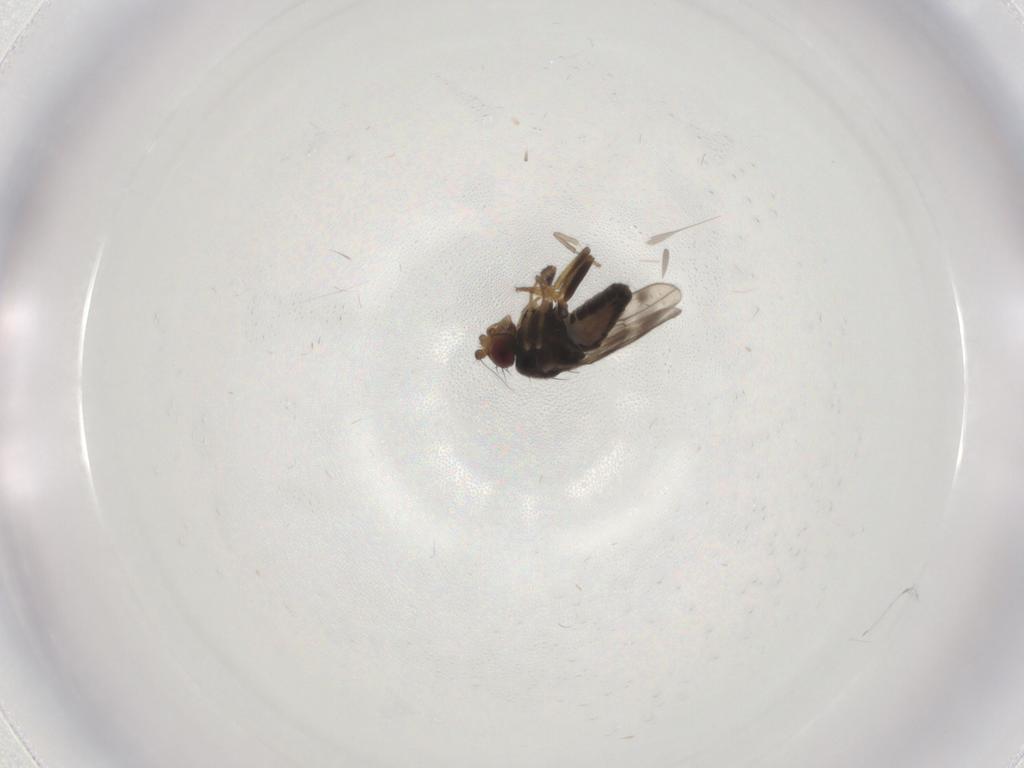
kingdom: Animalia
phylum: Arthropoda
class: Insecta
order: Diptera
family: Sphaeroceridae
